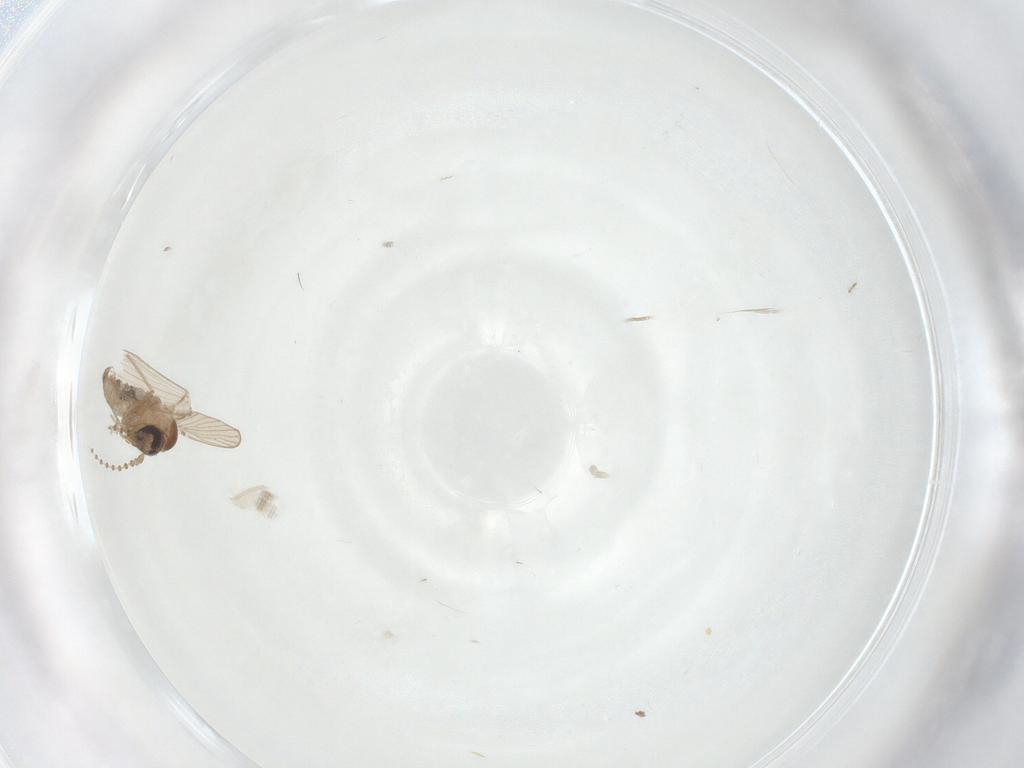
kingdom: Animalia
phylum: Arthropoda
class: Insecta
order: Diptera
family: Psychodidae
